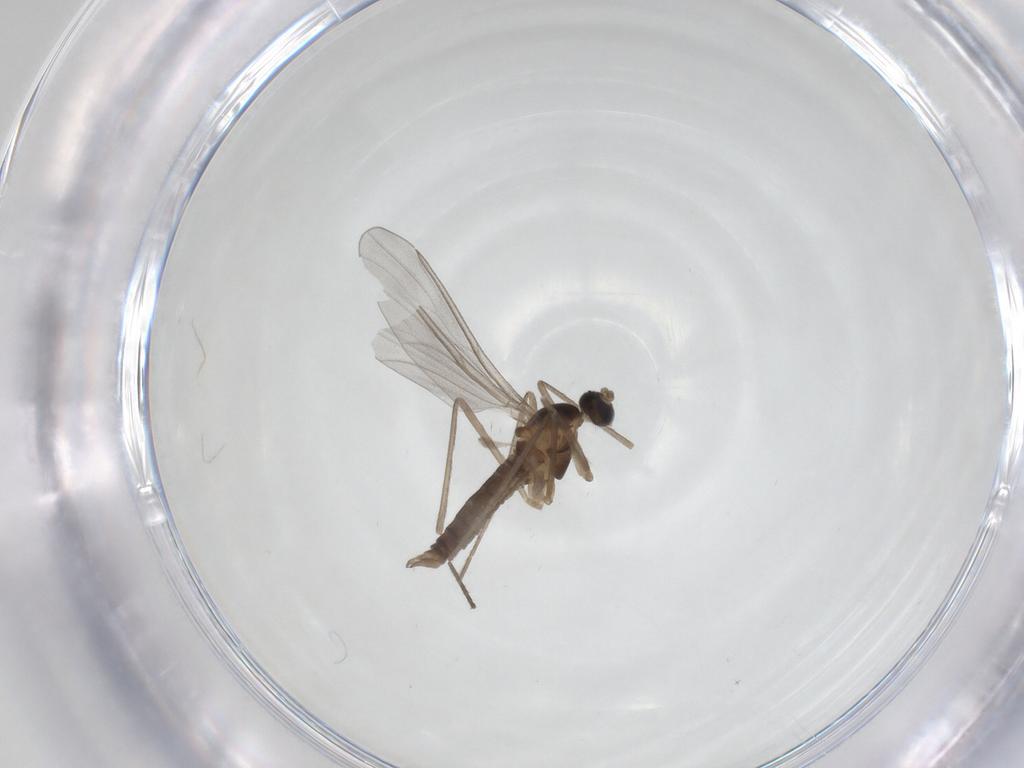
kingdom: Animalia
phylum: Arthropoda
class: Insecta
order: Diptera
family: Cecidomyiidae
